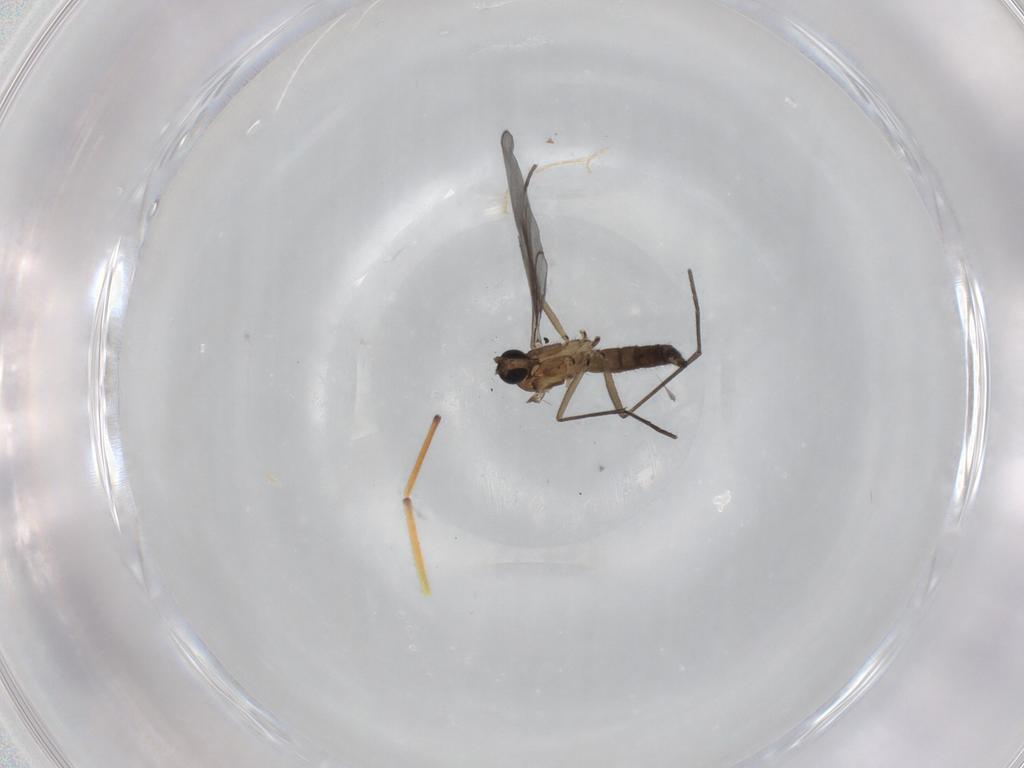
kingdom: Animalia
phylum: Arthropoda
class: Insecta
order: Diptera
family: Sciaridae
